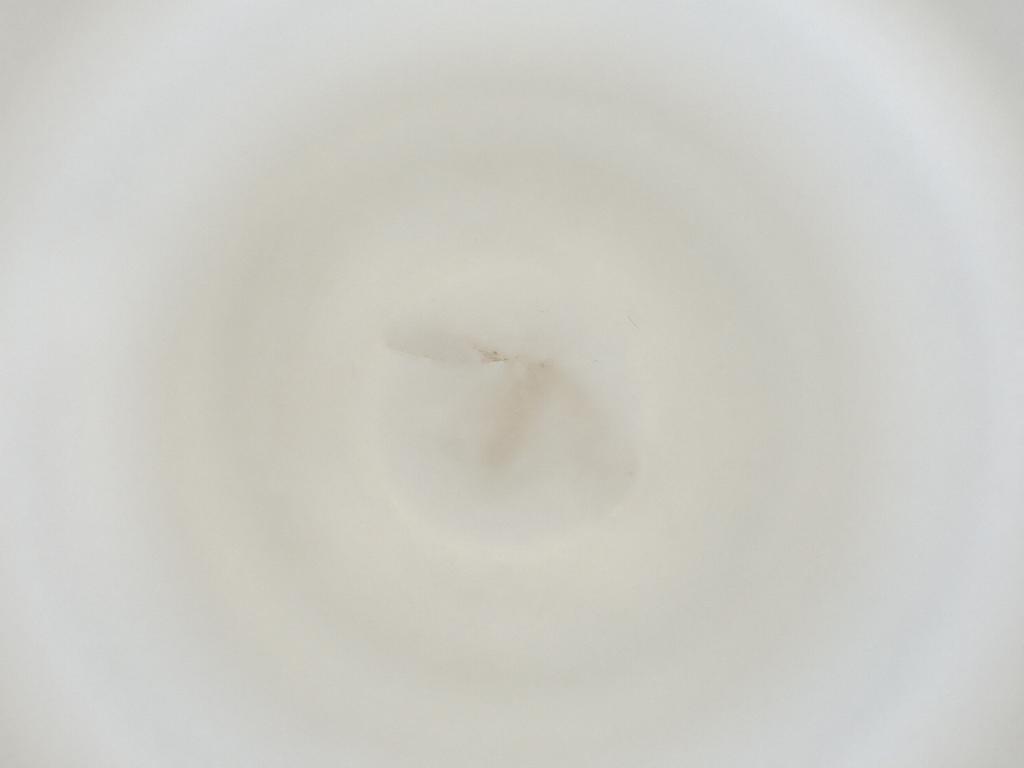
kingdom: Animalia
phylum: Arthropoda
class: Insecta
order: Diptera
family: Cecidomyiidae
